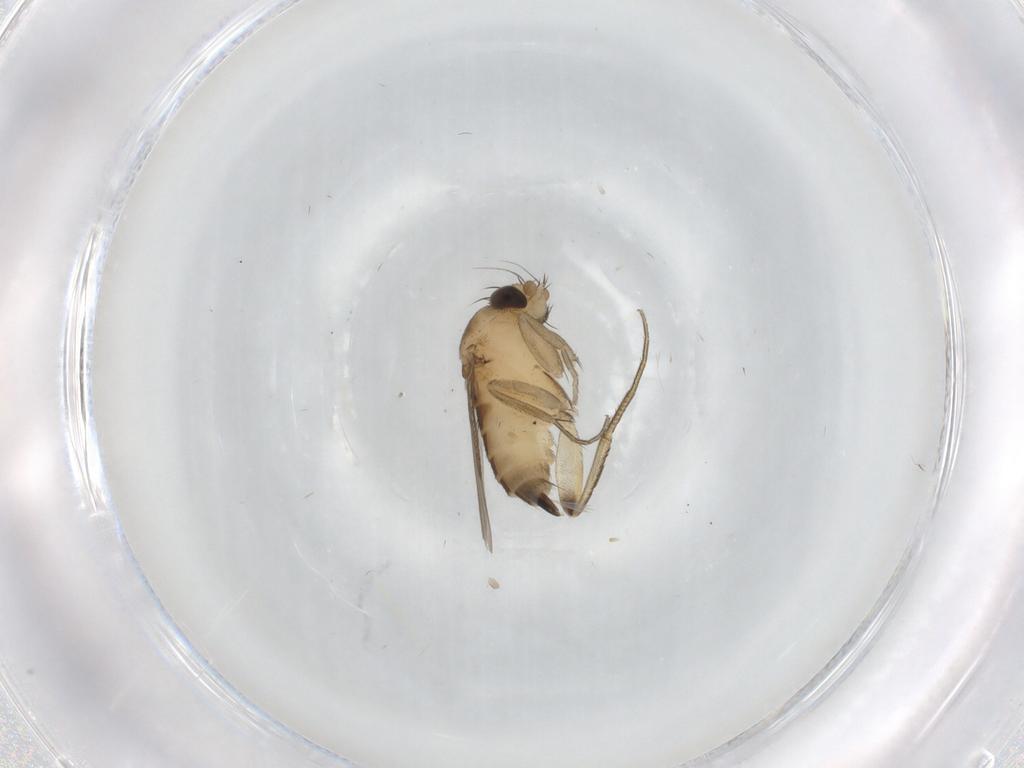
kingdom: Animalia
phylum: Arthropoda
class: Insecta
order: Diptera
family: Phoridae
